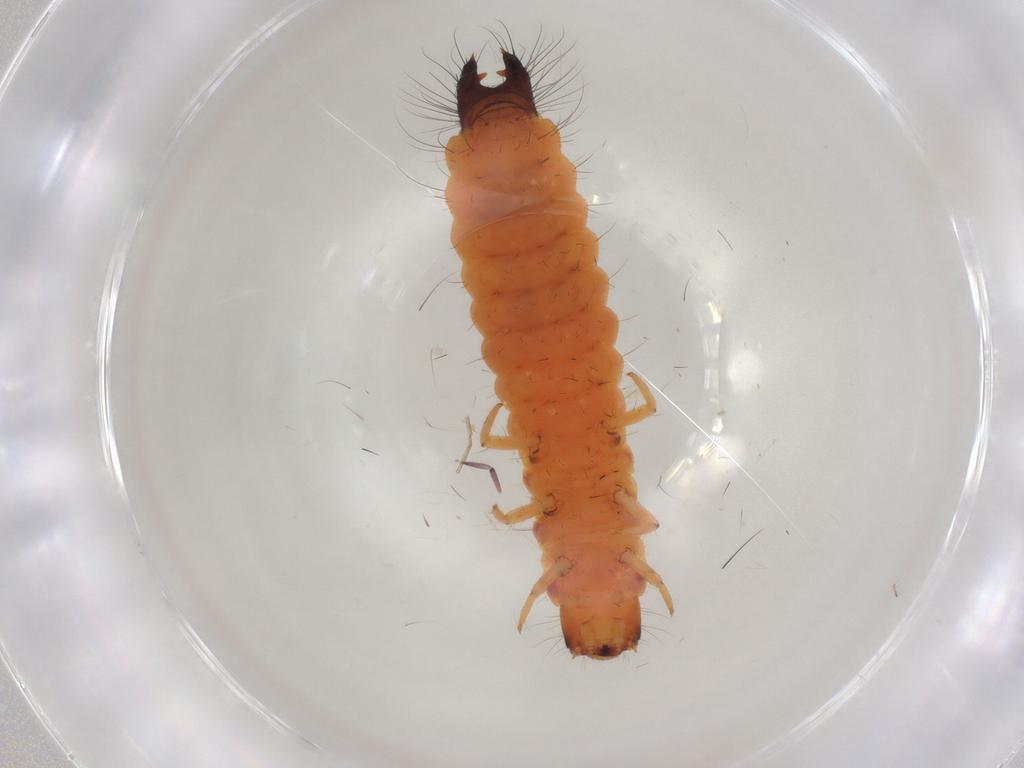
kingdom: Animalia
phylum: Arthropoda
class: Insecta
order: Coleoptera
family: Melyridae
